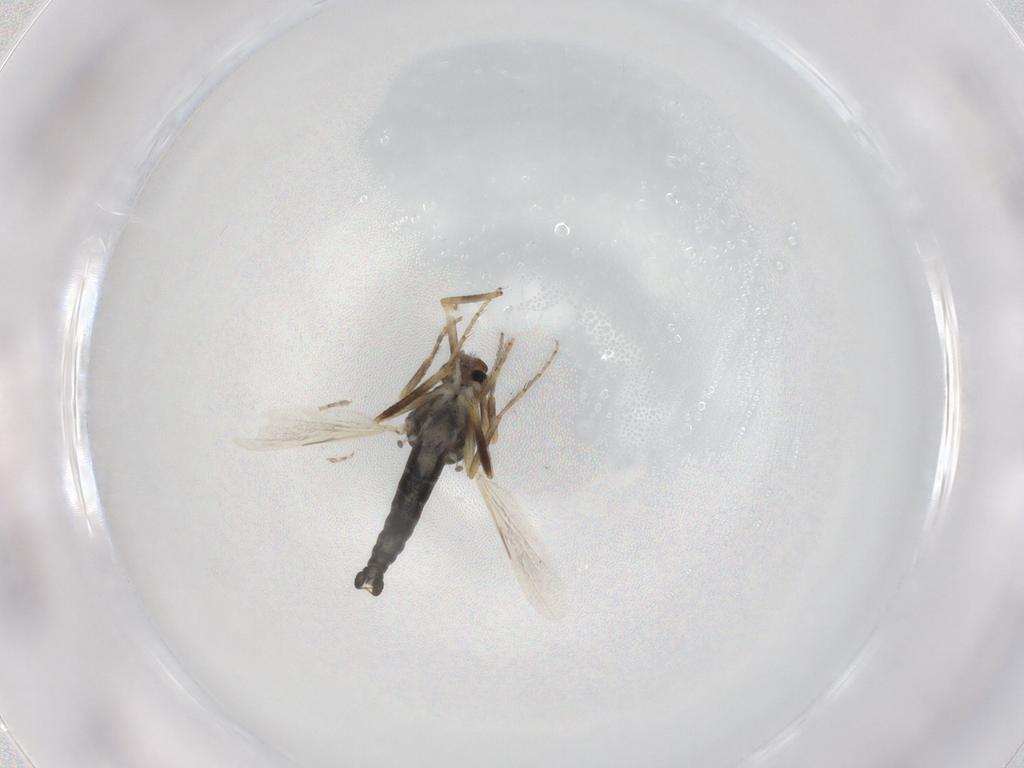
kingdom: Animalia
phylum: Arthropoda
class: Insecta
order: Diptera
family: Ceratopogonidae
